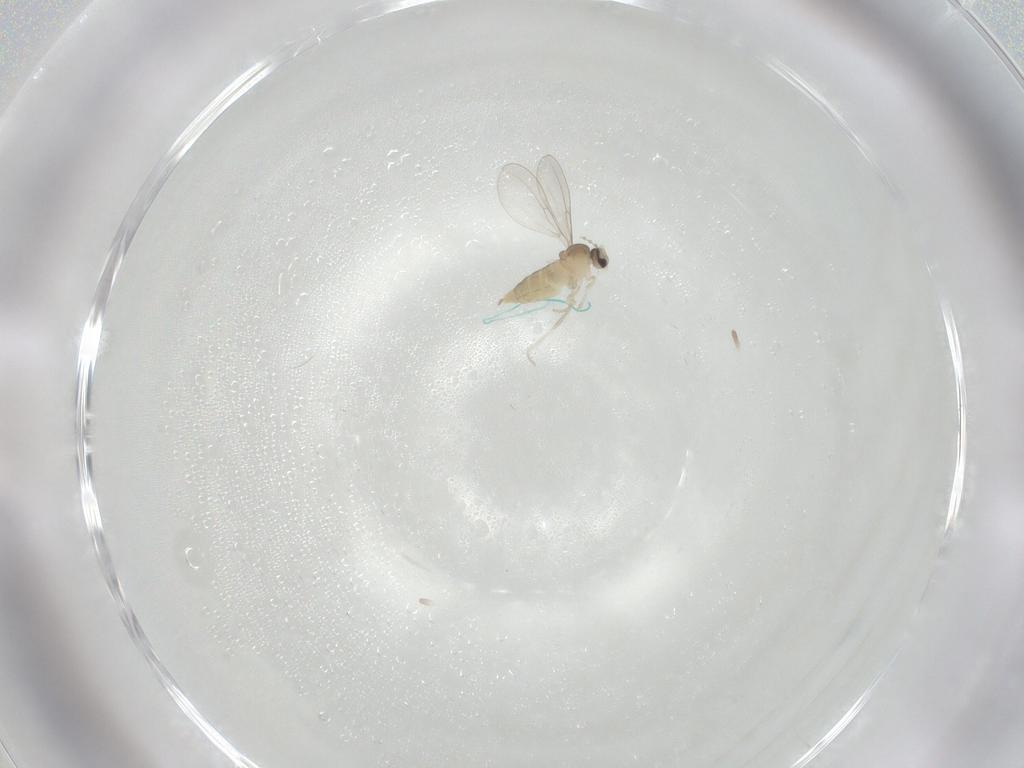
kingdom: Animalia
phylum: Arthropoda
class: Insecta
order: Diptera
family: Cecidomyiidae
